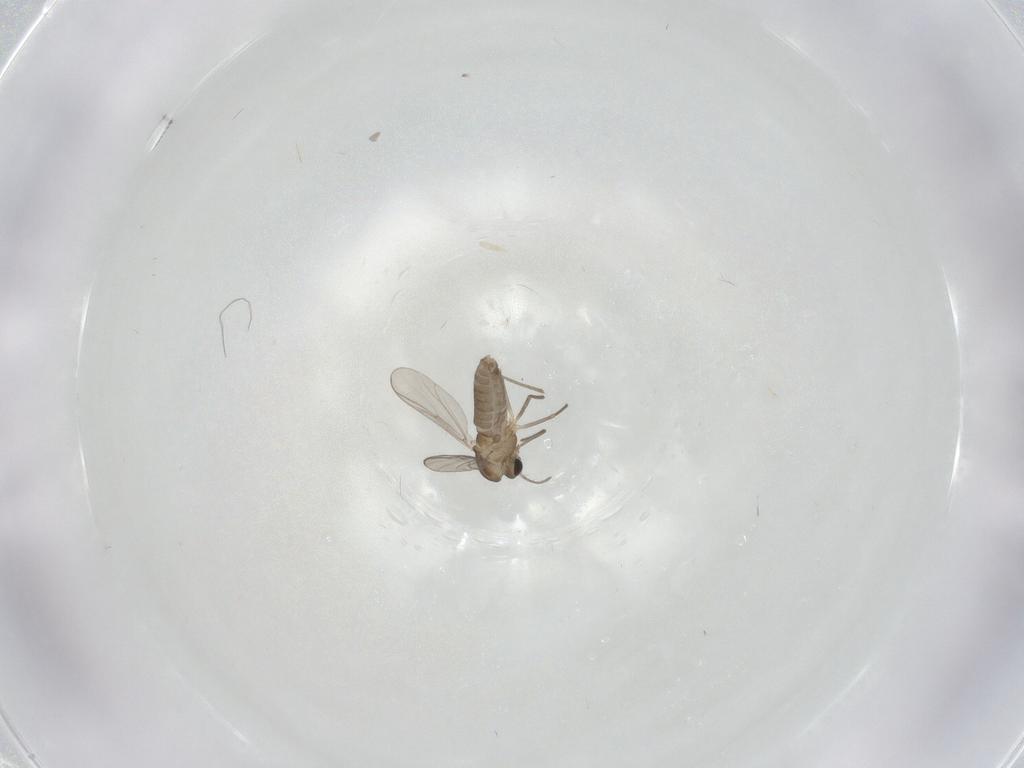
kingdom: Animalia
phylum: Arthropoda
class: Insecta
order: Diptera
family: Chironomidae
